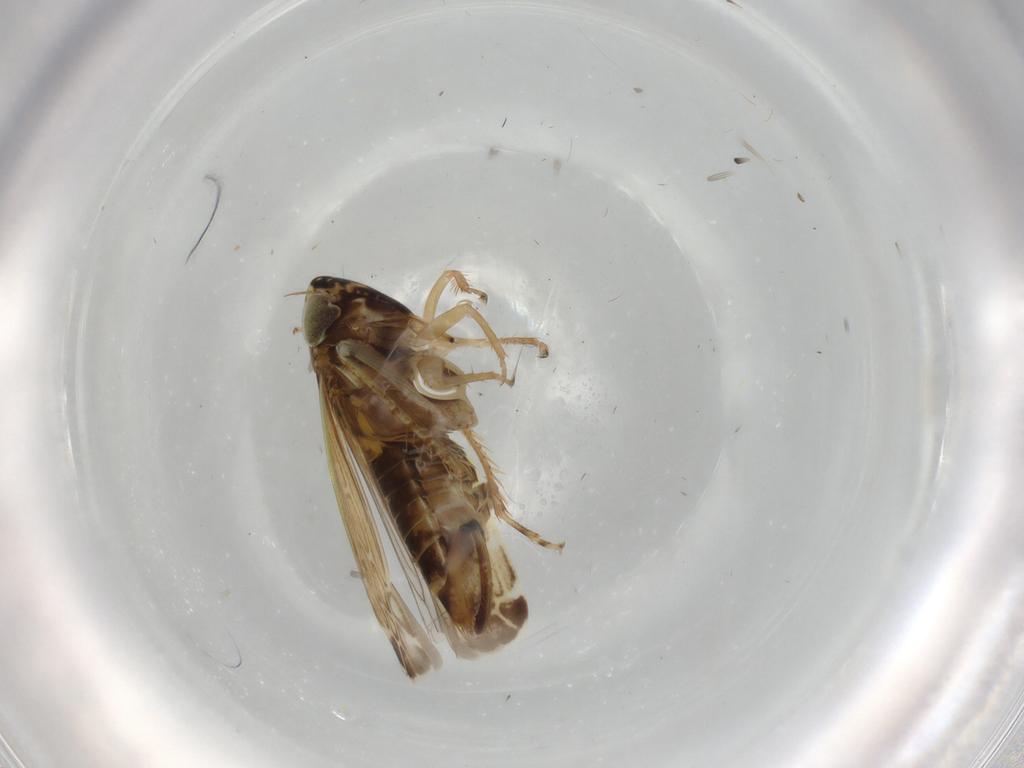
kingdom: Animalia
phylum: Arthropoda
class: Insecta
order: Hemiptera
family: Cicadellidae
